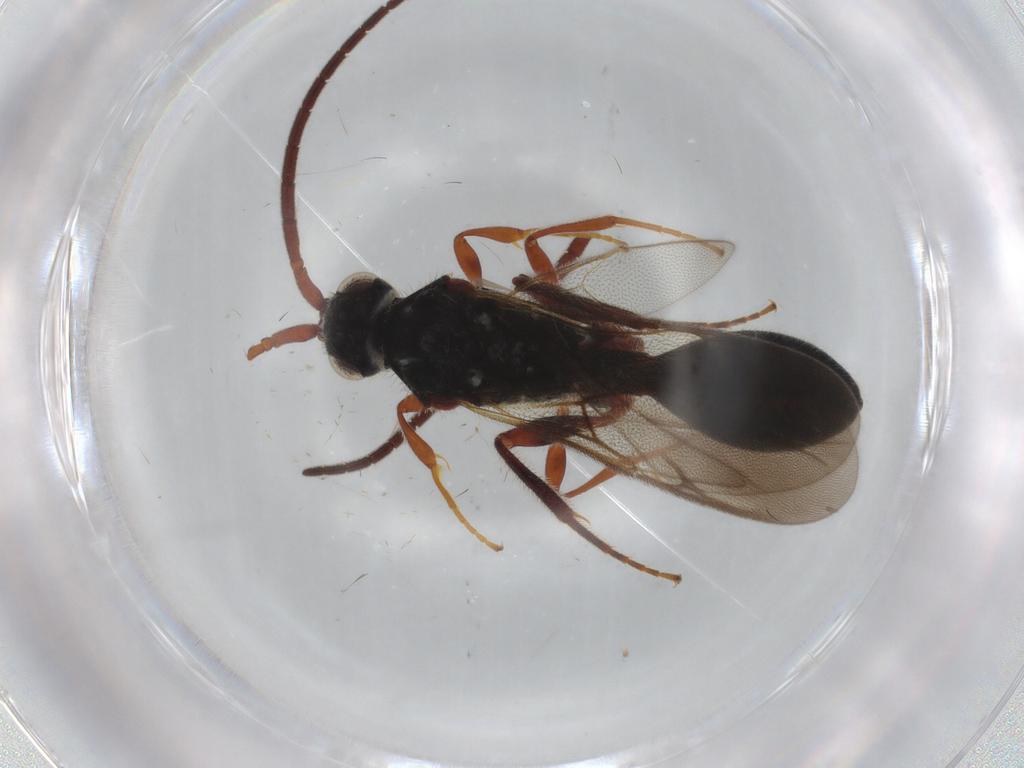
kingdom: Animalia
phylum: Arthropoda
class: Insecta
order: Hymenoptera
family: Diapriidae
